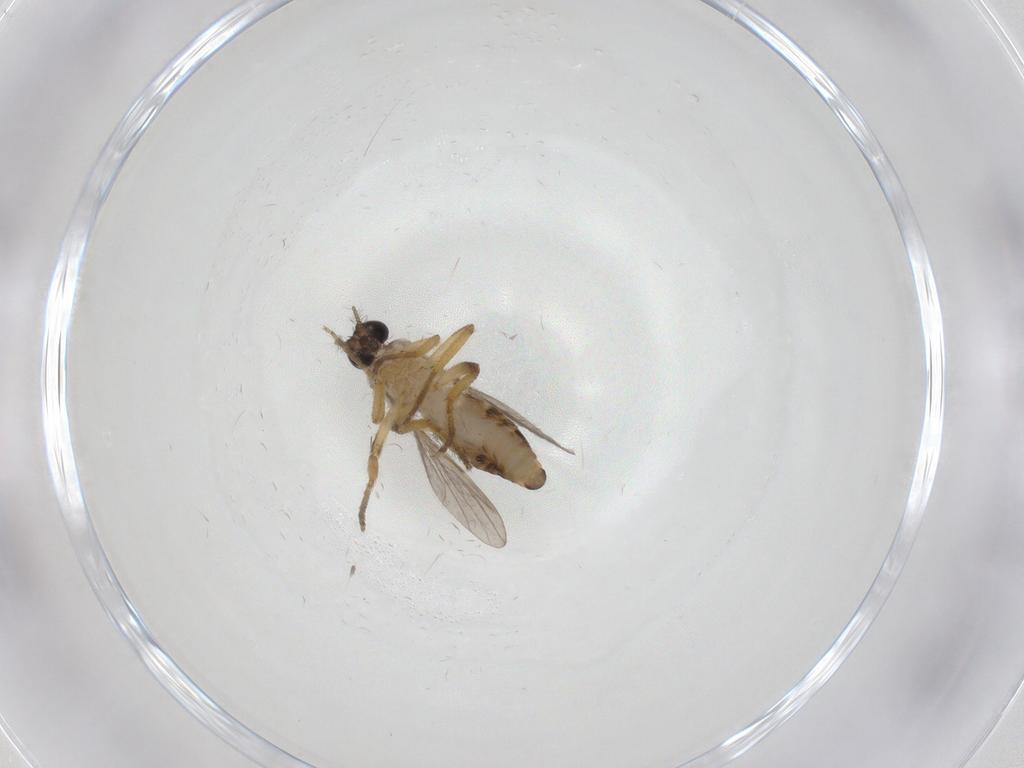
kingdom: Animalia
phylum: Arthropoda
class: Insecta
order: Diptera
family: Ceratopogonidae
